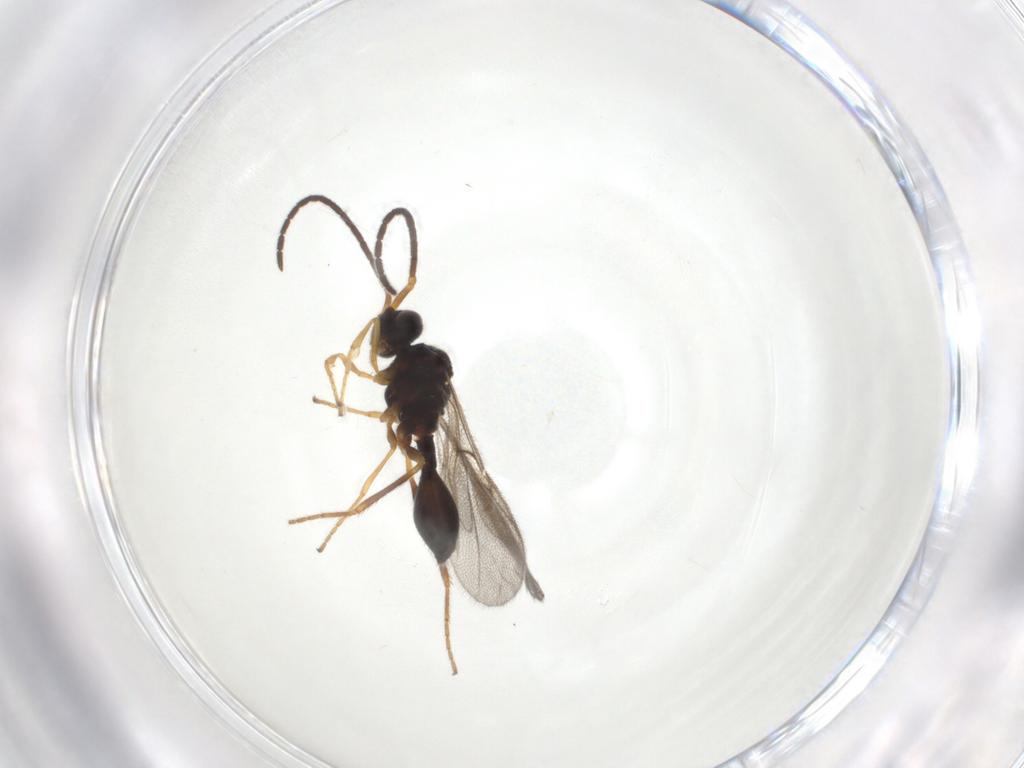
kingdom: Animalia
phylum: Arthropoda
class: Insecta
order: Hymenoptera
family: Diapriidae
